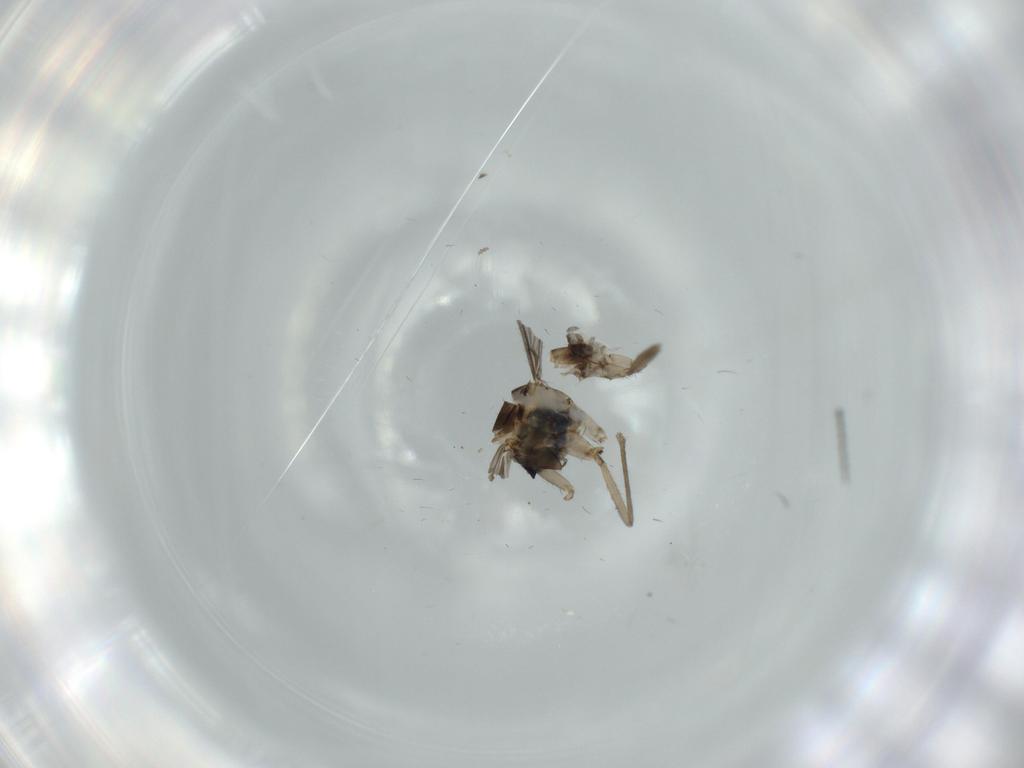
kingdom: Animalia
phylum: Arthropoda
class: Insecta
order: Diptera
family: Sciaridae
